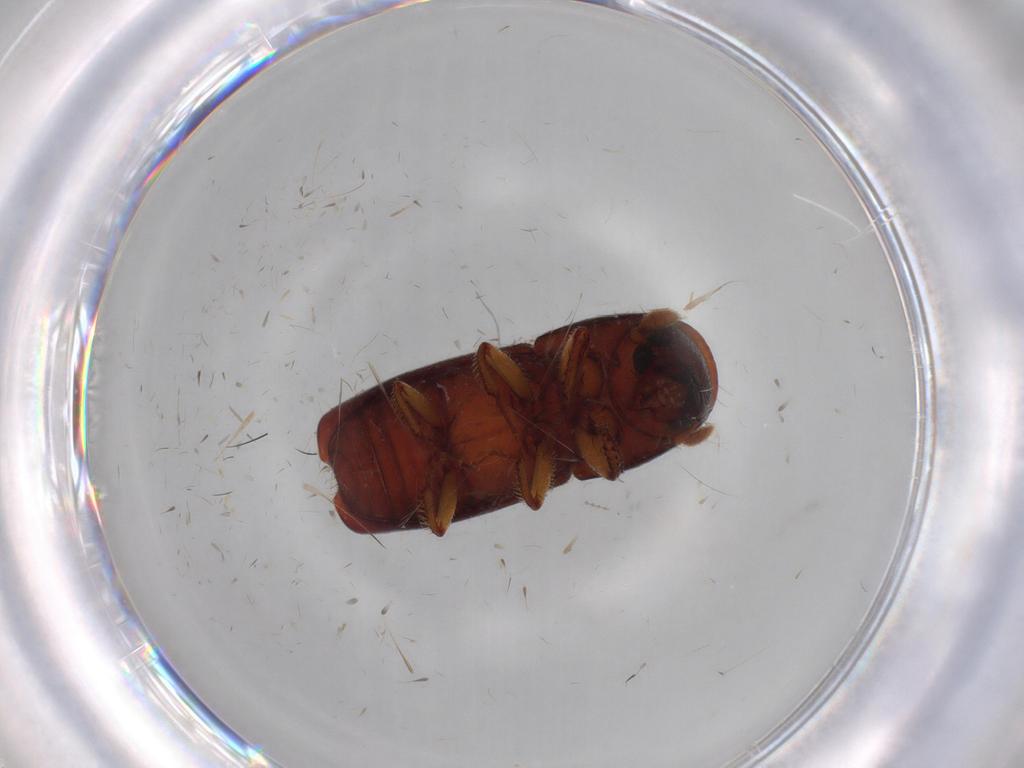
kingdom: Animalia
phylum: Arthropoda
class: Insecta
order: Coleoptera
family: Curculionidae
